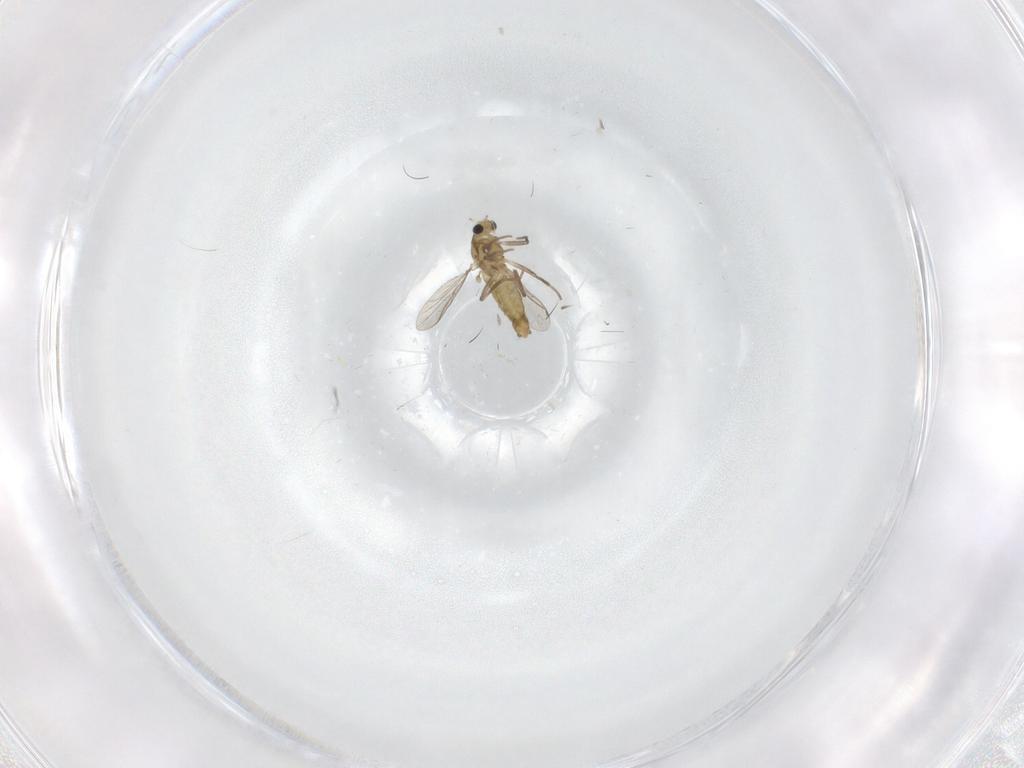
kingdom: Animalia
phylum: Arthropoda
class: Insecta
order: Diptera
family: Chironomidae
